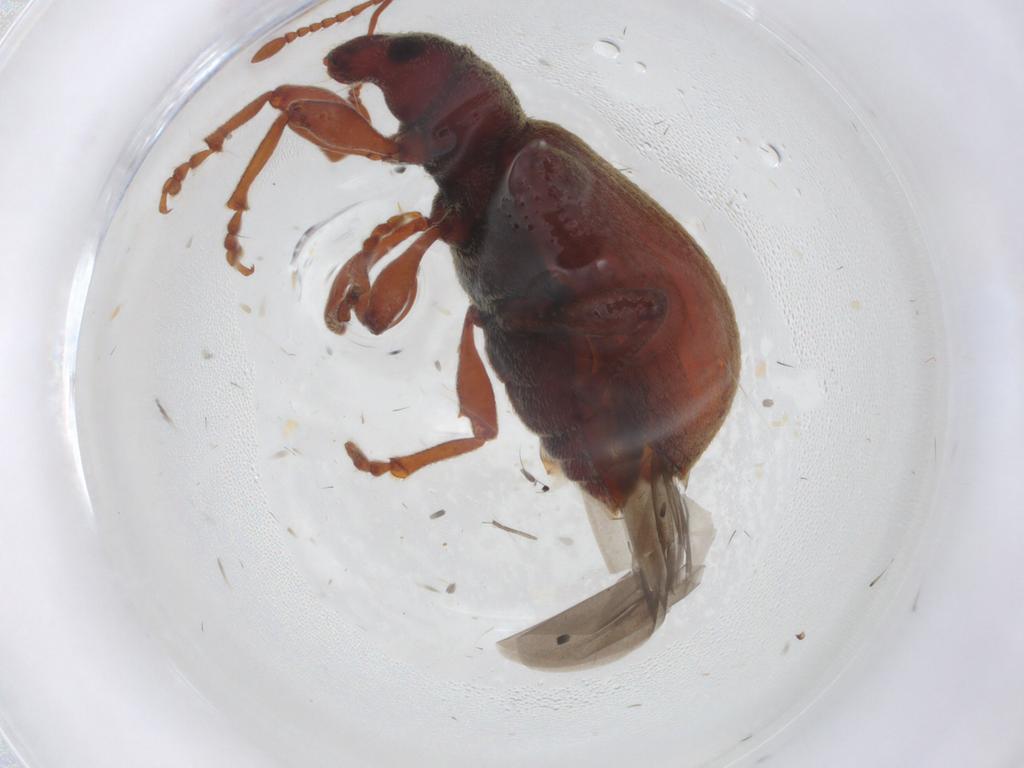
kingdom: Animalia
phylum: Arthropoda
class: Insecta
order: Coleoptera
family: Curculionidae
